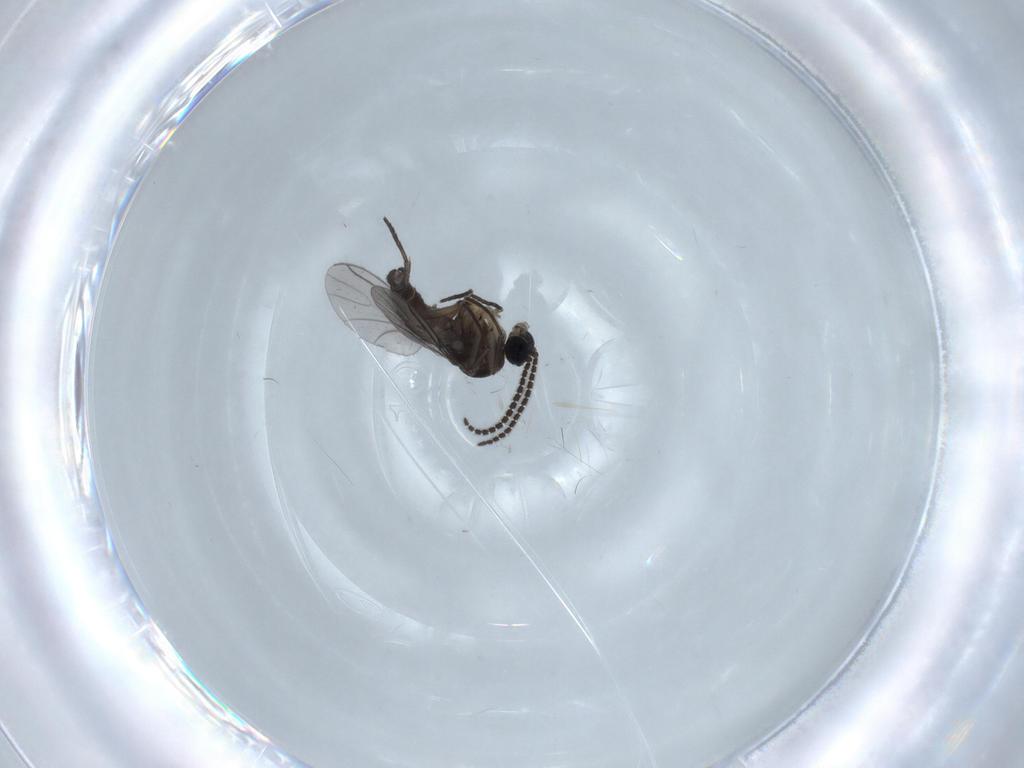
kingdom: Animalia
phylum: Arthropoda
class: Insecta
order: Diptera
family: Sciaridae
